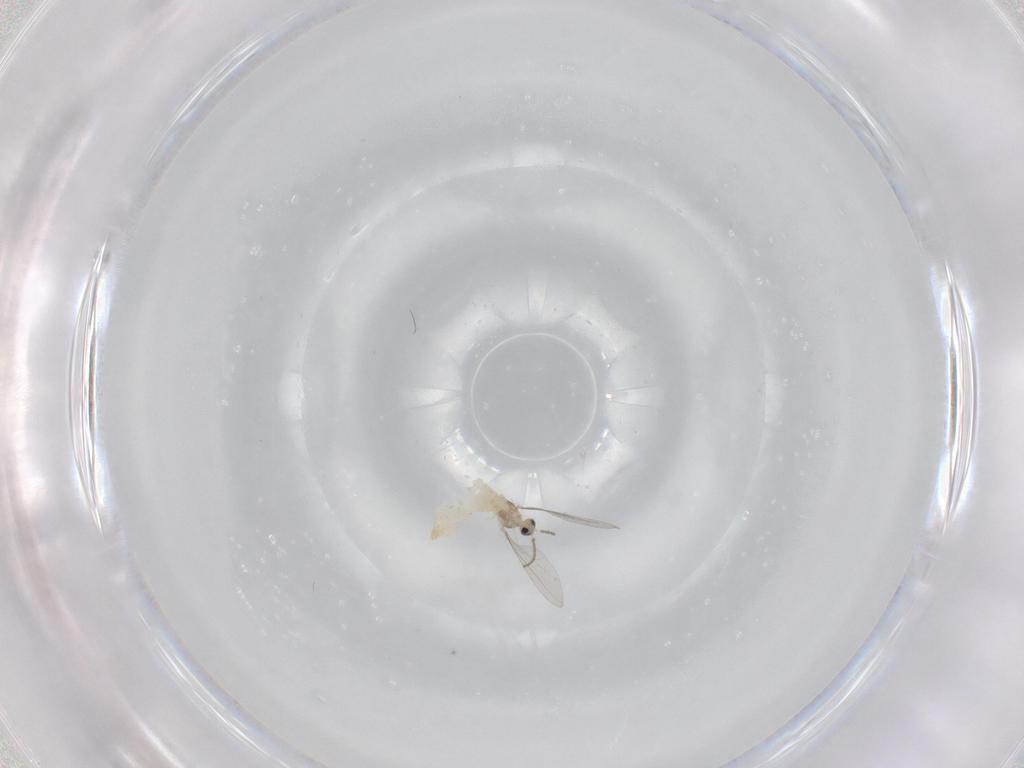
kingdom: Animalia
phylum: Arthropoda
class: Insecta
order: Diptera
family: Cecidomyiidae
